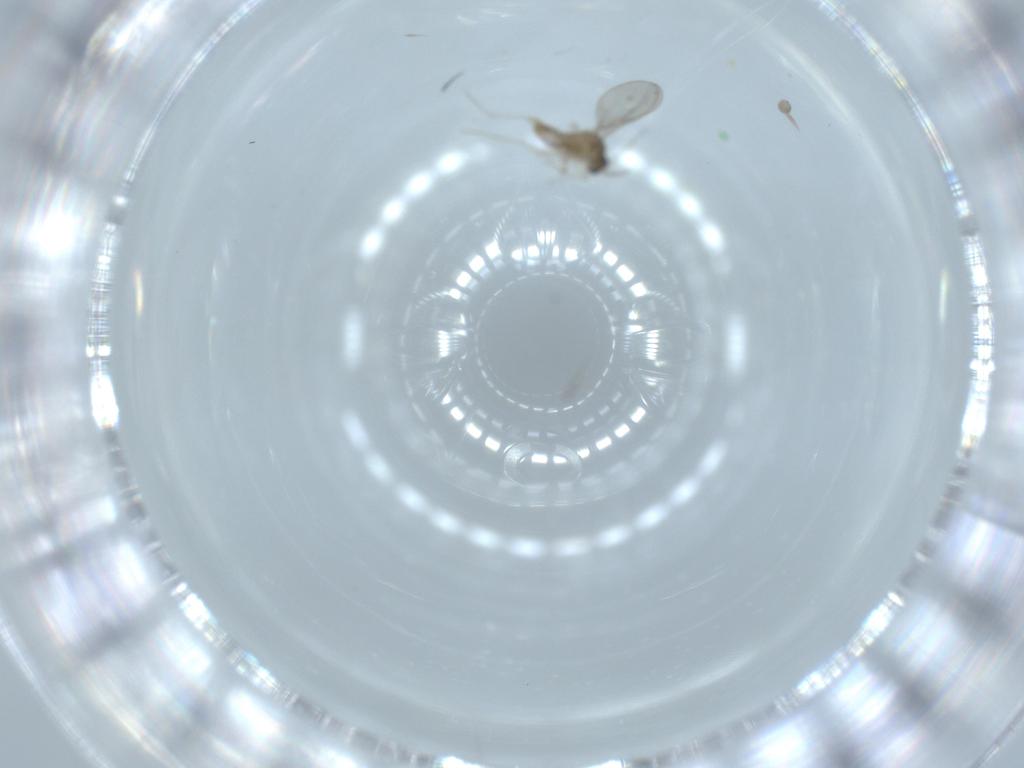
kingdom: Animalia
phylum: Arthropoda
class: Insecta
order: Diptera
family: Cecidomyiidae
